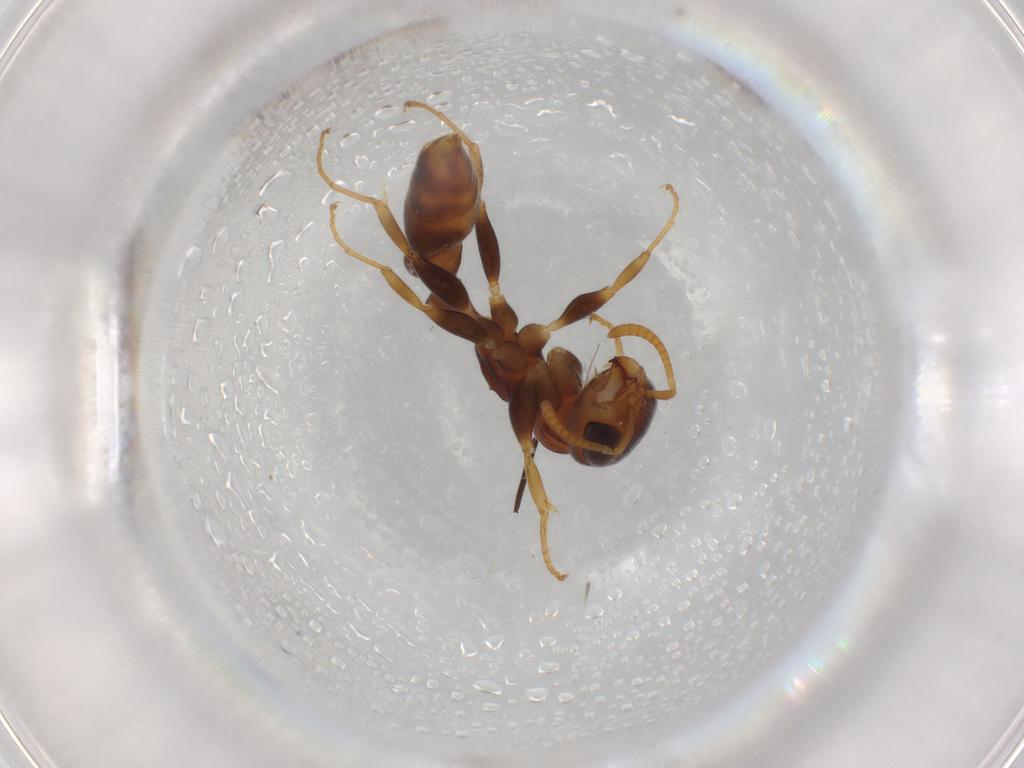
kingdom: Animalia
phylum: Arthropoda
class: Insecta
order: Hymenoptera
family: Formicidae
